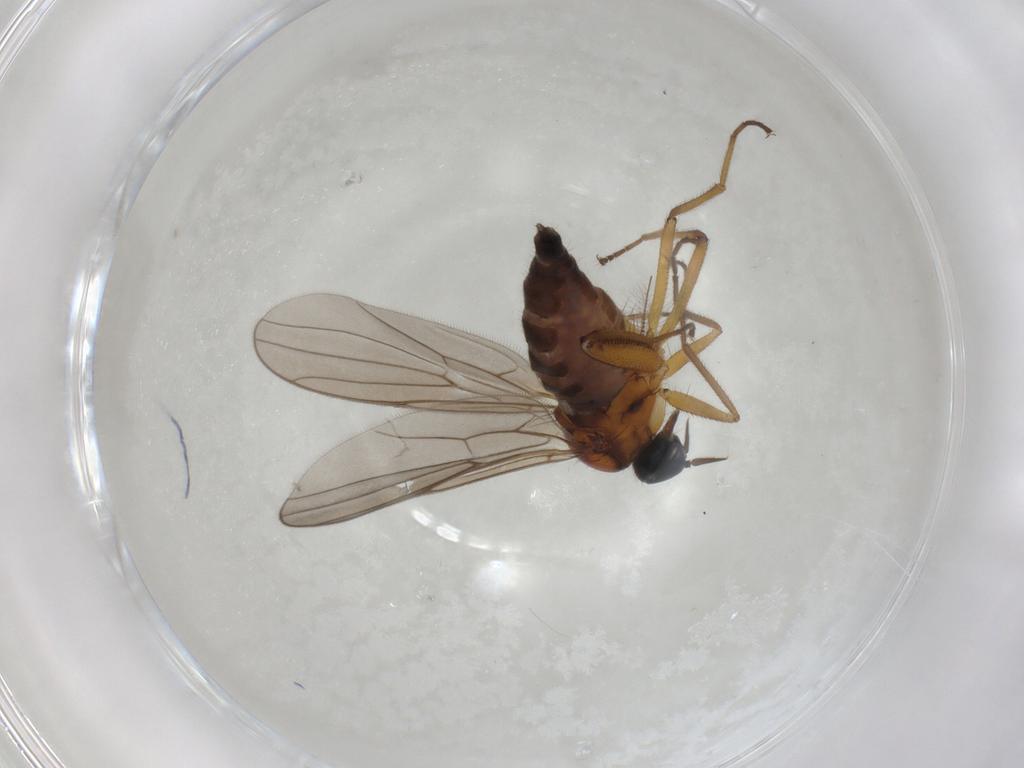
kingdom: Animalia
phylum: Arthropoda
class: Insecta
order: Diptera
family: Hybotidae
